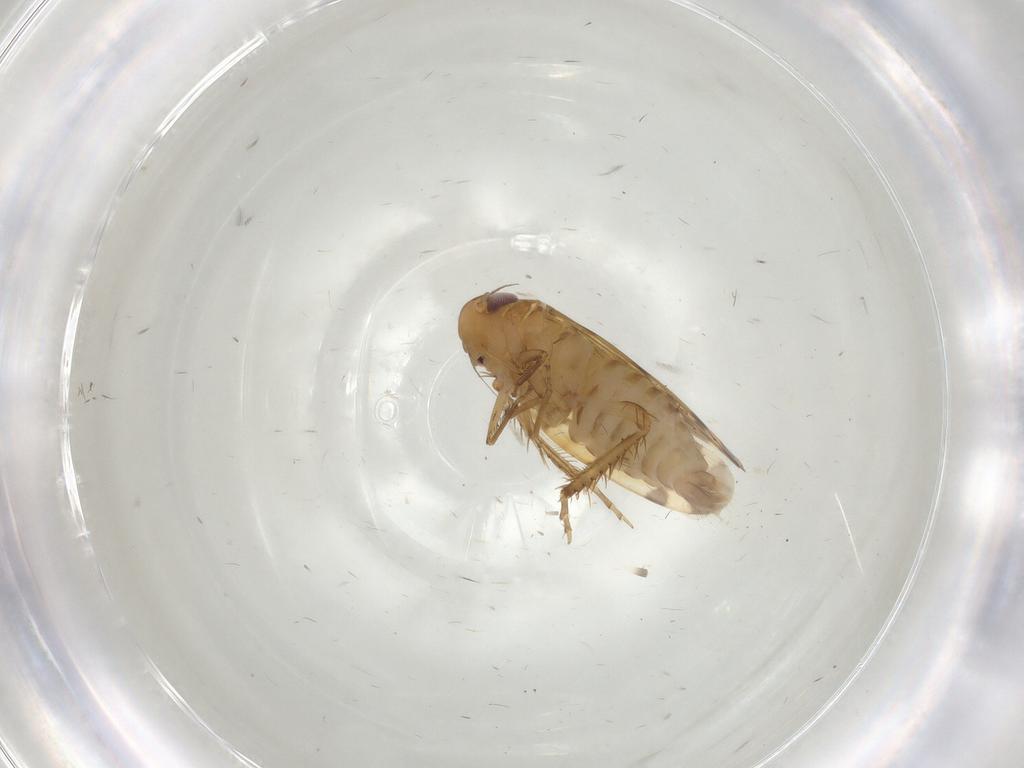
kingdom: Animalia
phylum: Arthropoda
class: Insecta
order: Hemiptera
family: Cicadellidae
